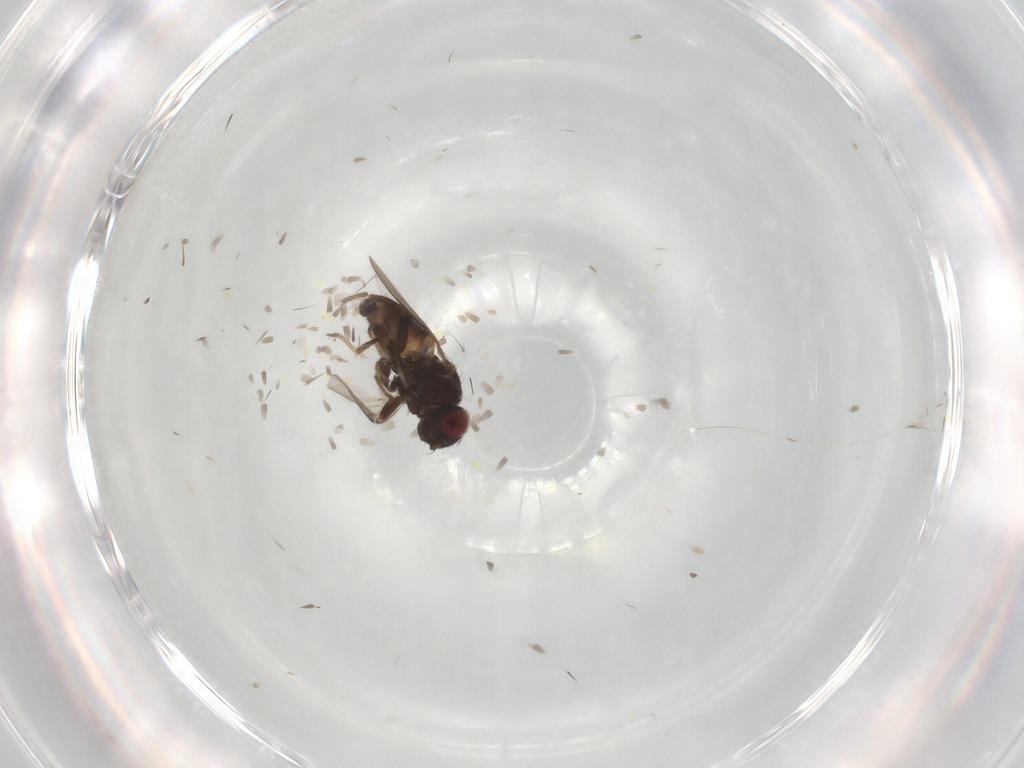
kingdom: Animalia
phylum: Arthropoda
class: Insecta
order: Diptera
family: Chloropidae
